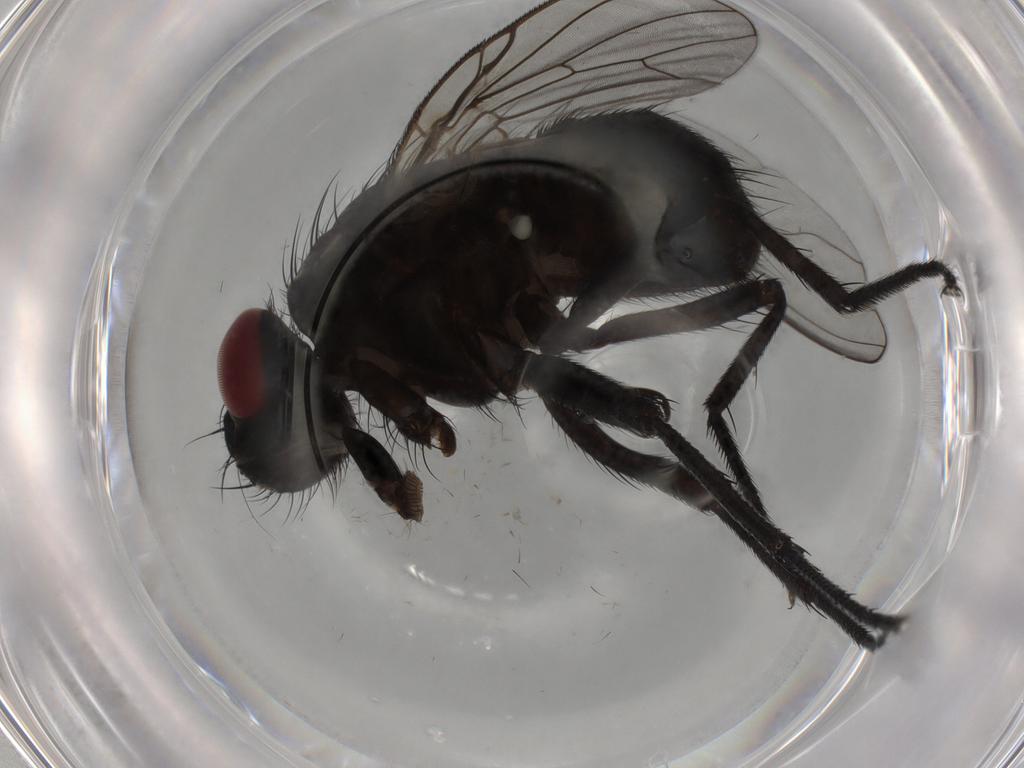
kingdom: Animalia
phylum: Arthropoda
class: Insecta
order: Diptera
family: Muscidae
